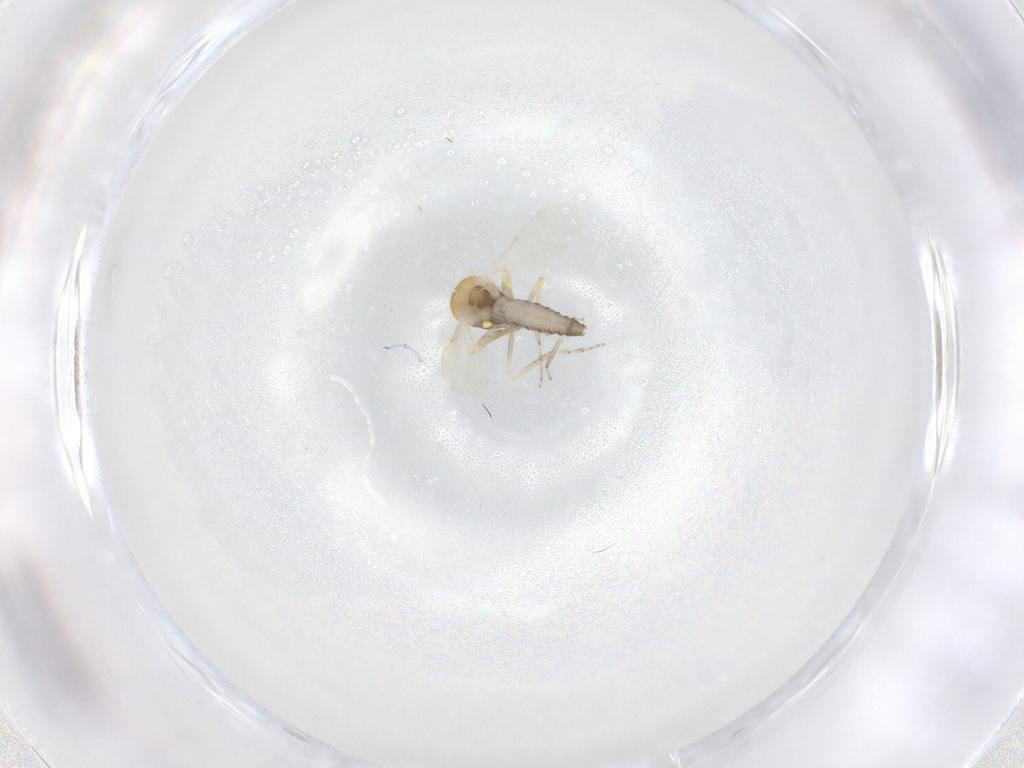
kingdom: Animalia
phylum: Arthropoda
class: Insecta
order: Diptera
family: Ceratopogonidae
